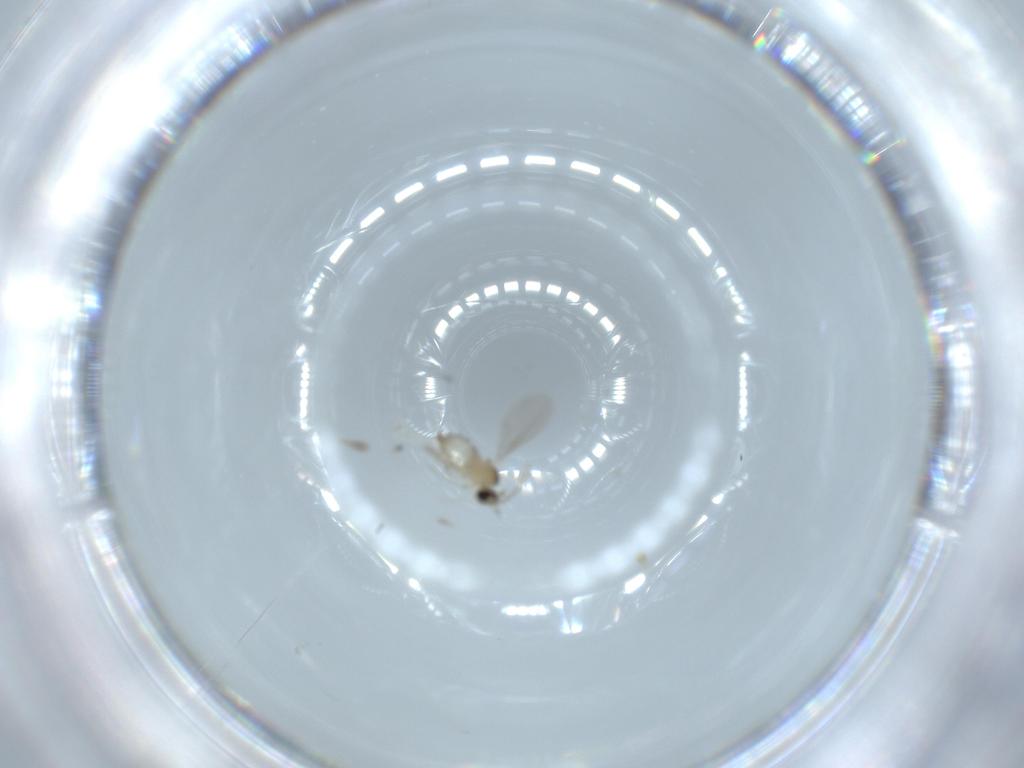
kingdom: Animalia
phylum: Arthropoda
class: Insecta
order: Diptera
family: Cecidomyiidae
